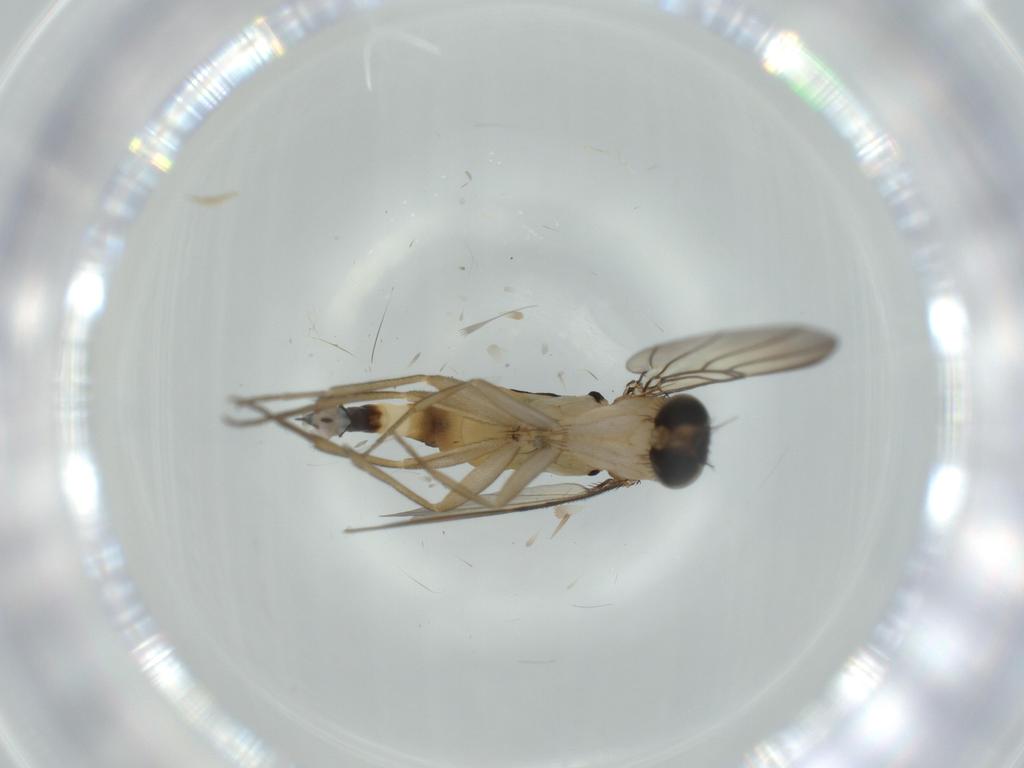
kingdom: Animalia
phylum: Arthropoda
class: Insecta
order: Diptera
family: Phoridae
